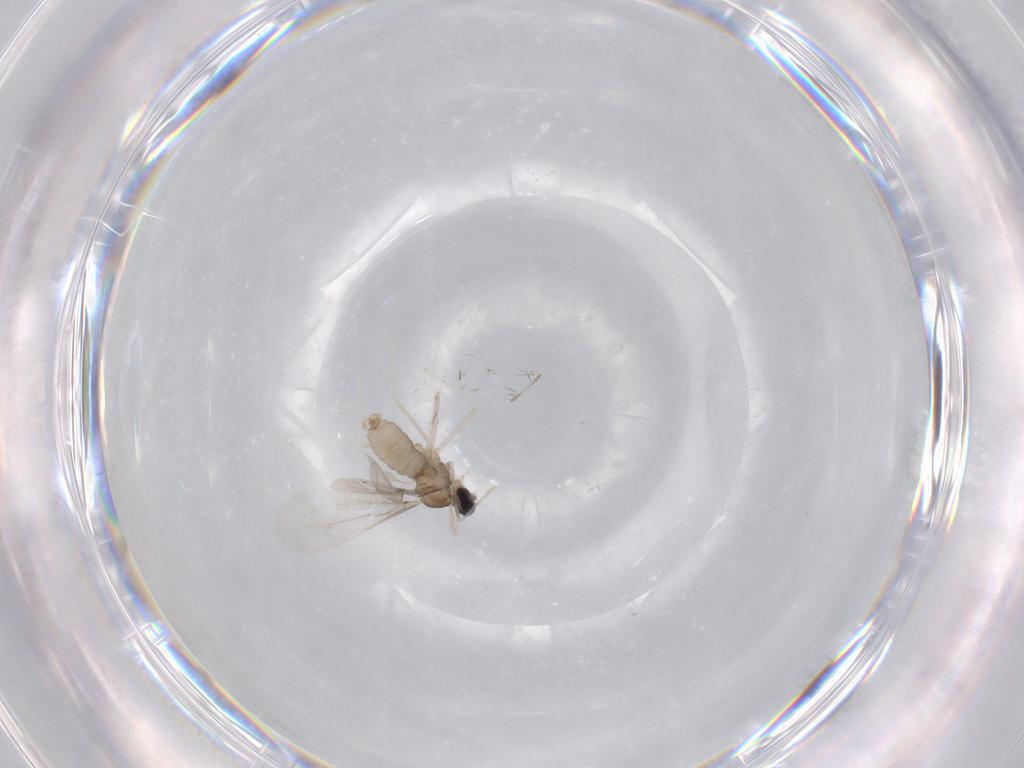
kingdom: Animalia
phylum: Arthropoda
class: Insecta
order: Diptera
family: Cecidomyiidae
